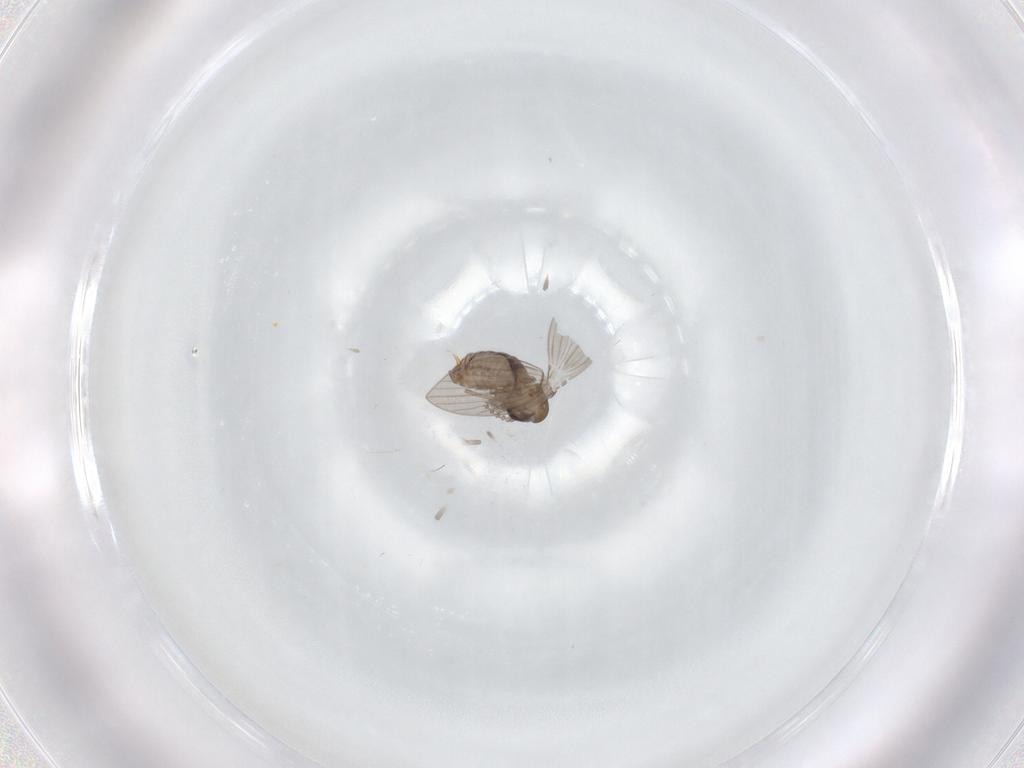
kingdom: Animalia
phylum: Arthropoda
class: Insecta
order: Diptera
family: Psychodidae
